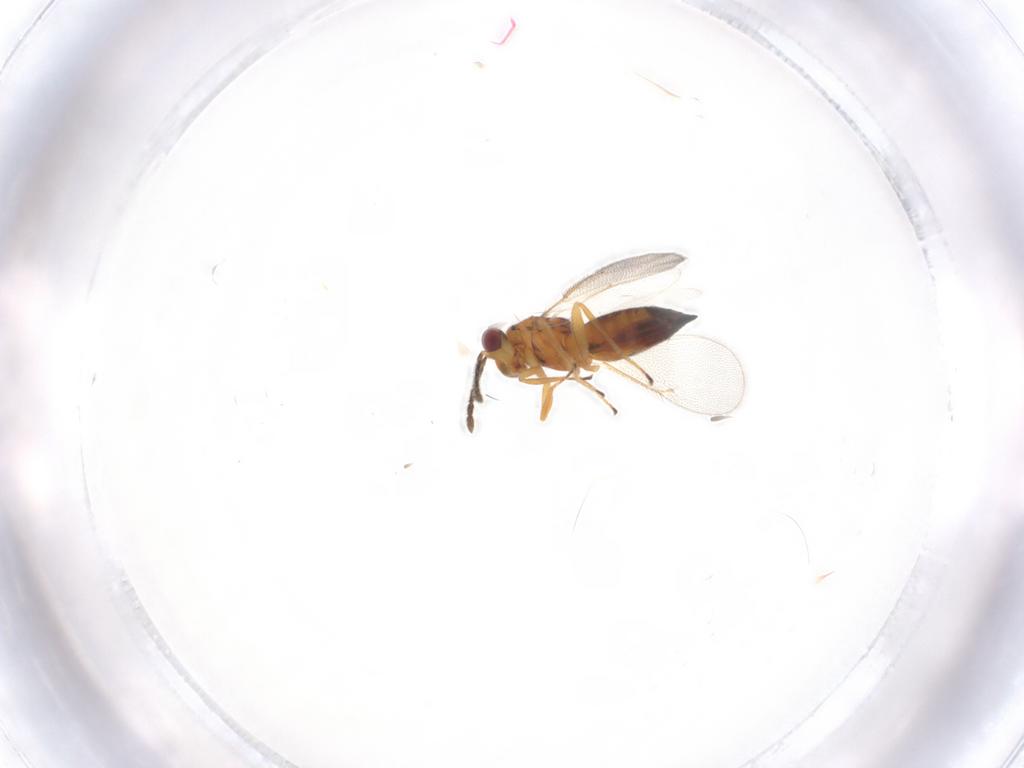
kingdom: Animalia
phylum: Arthropoda
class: Insecta
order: Hymenoptera
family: Eulophidae
